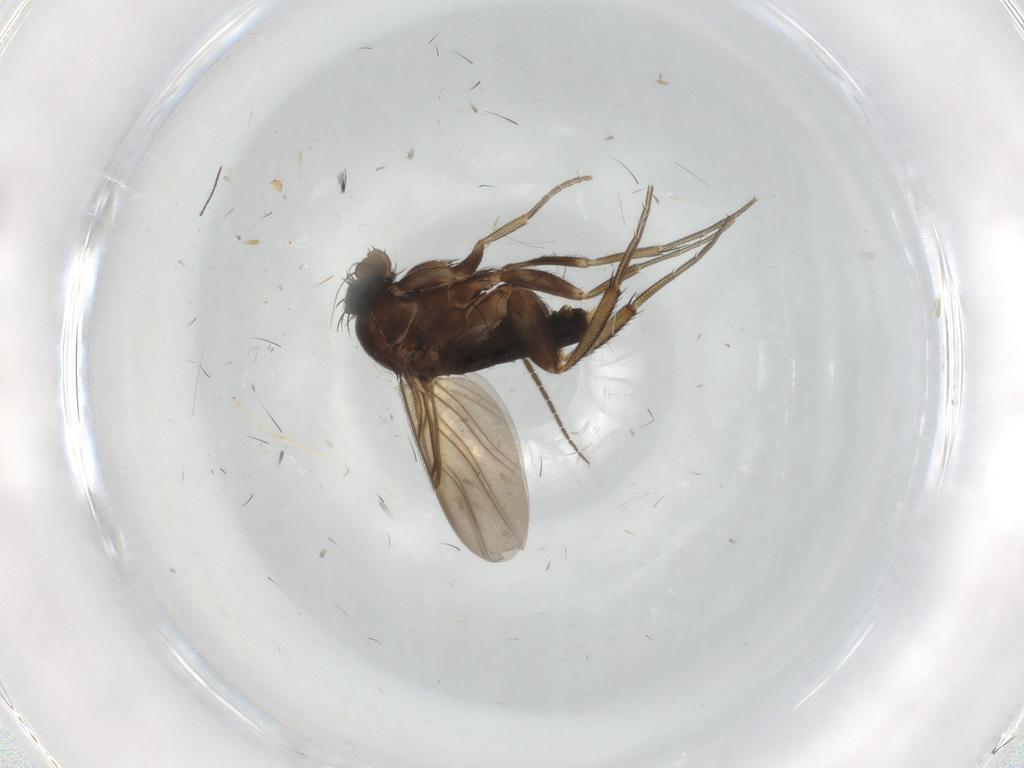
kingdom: Animalia
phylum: Arthropoda
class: Insecta
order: Diptera
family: Phoridae
